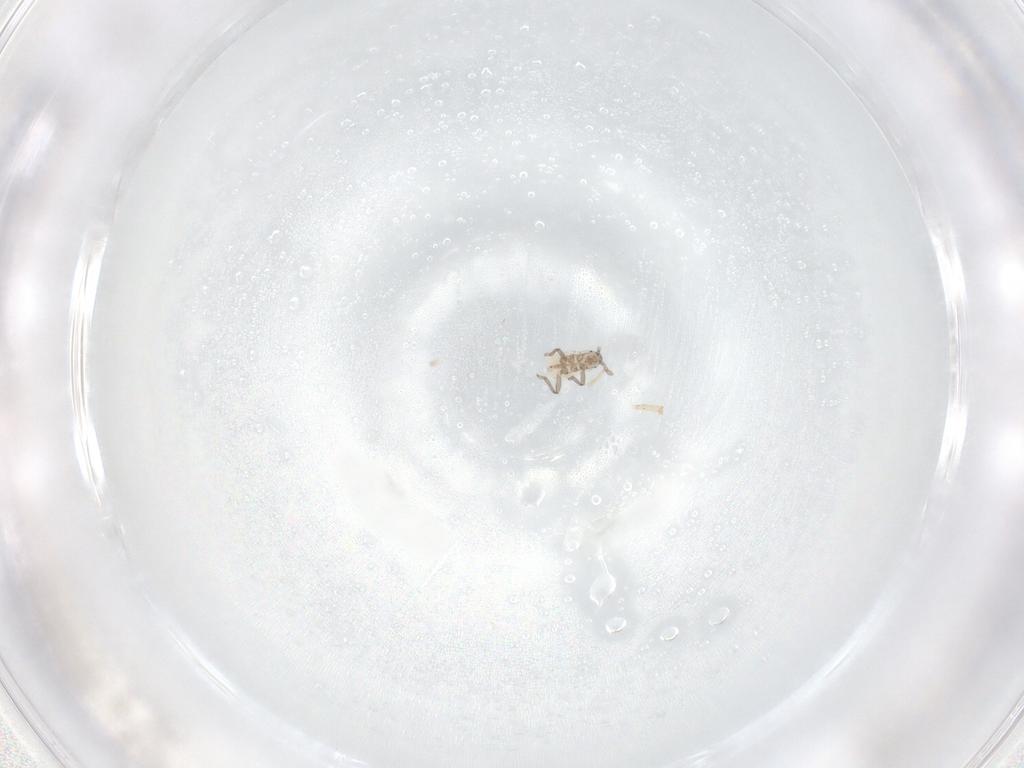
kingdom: Animalia
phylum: Arthropoda
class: Insecta
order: Hemiptera
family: Aphididae
